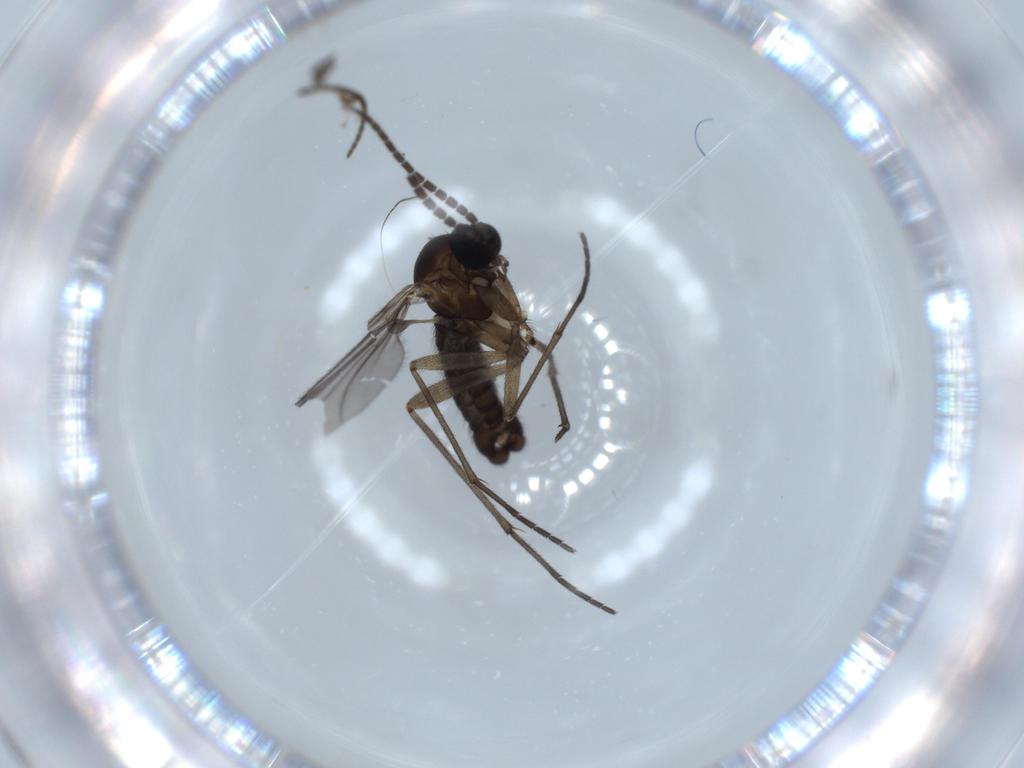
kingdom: Animalia
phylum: Arthropoda
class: Insecta
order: Diptera
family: Sciaridae
